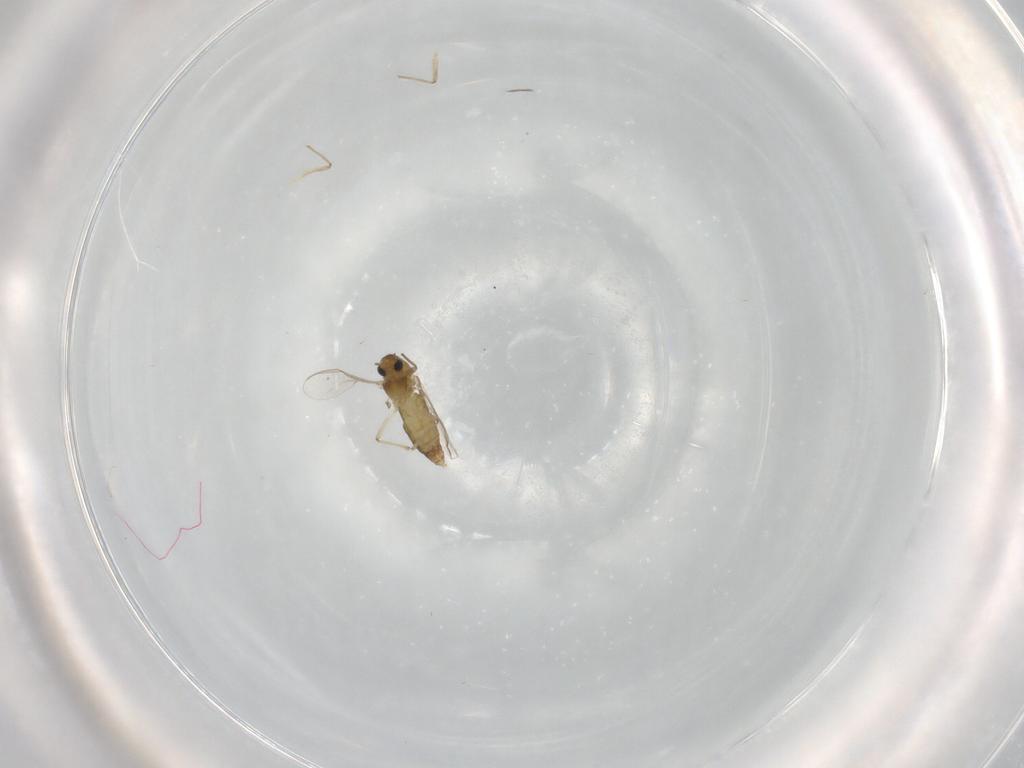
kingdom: Animalia
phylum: Arthropoda
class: Insecta
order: Diptera
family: Chironomidae
